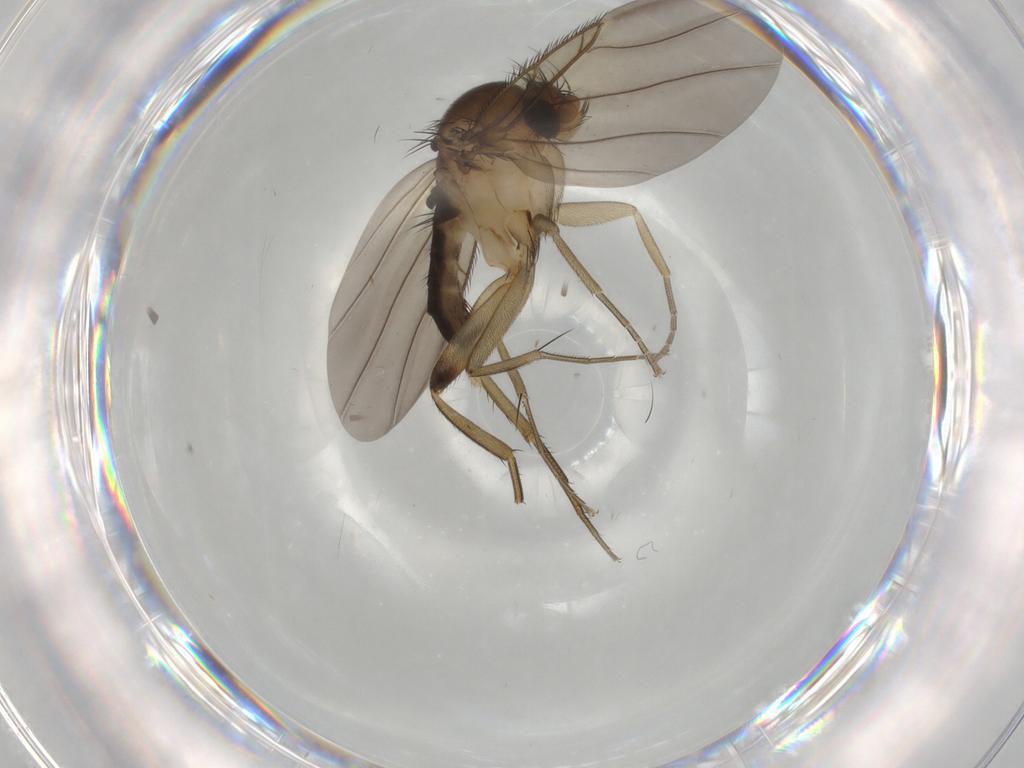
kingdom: Animalia
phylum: Arthropoda
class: Insecta
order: Diptera
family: Phoridae
